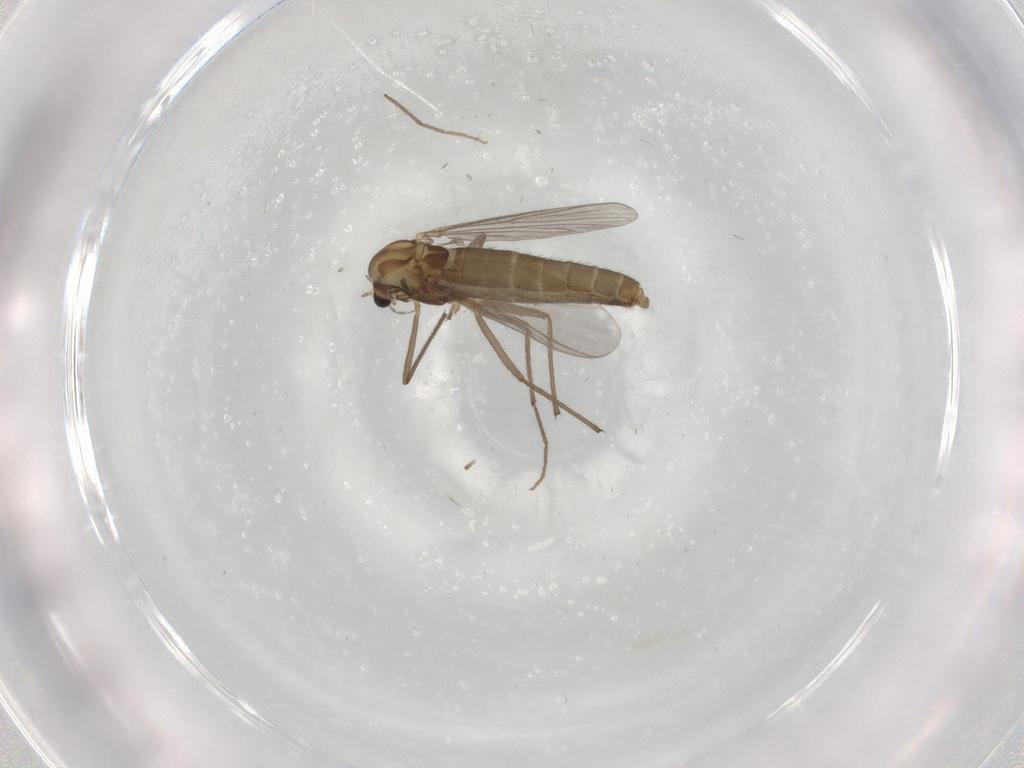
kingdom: Animalia
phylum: Arthropoda
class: Insecta
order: Diptera
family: Chironomidae
